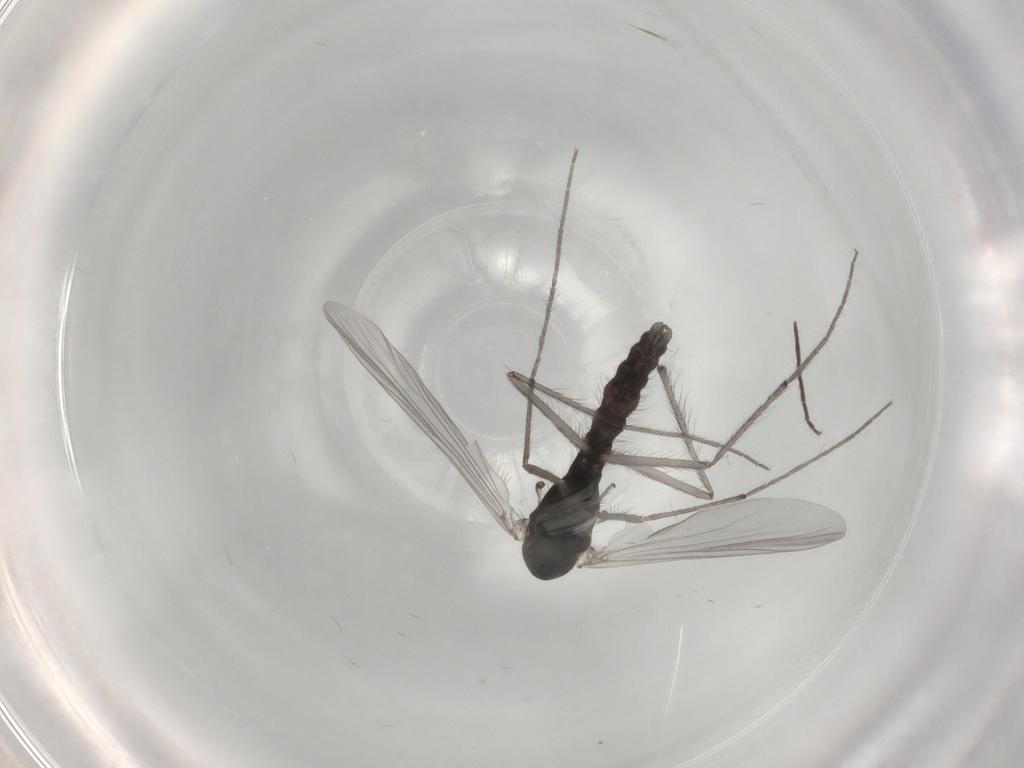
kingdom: Animalia
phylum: Arthropoda
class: Insecta
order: Diptera
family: Chironomidae
